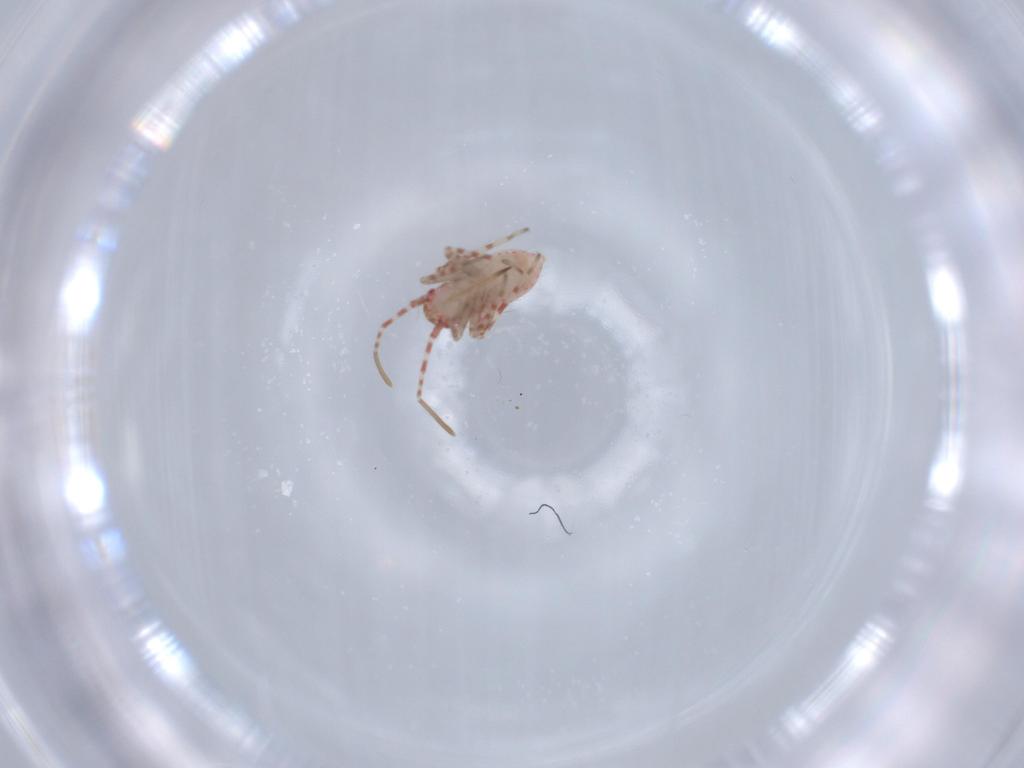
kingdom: Animalia
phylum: Arthropoda
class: Insecta
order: Hemiptera
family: Miridae
